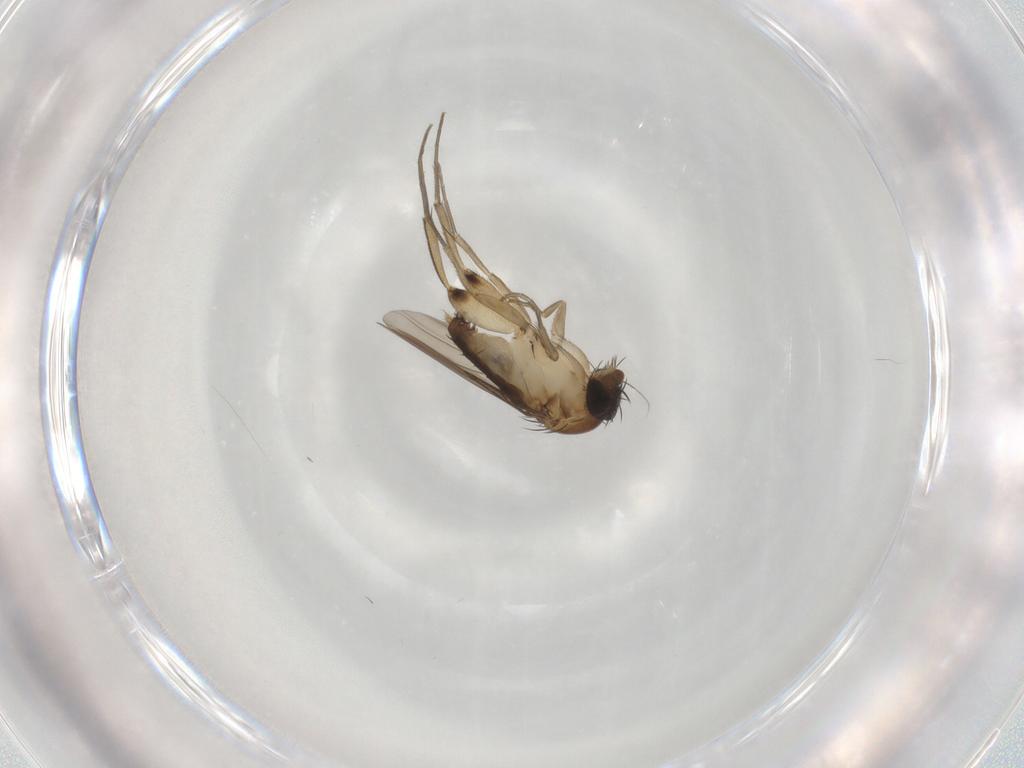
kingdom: Animalia
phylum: Arthropoda
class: Insecta
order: Diptera
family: Phoridae
